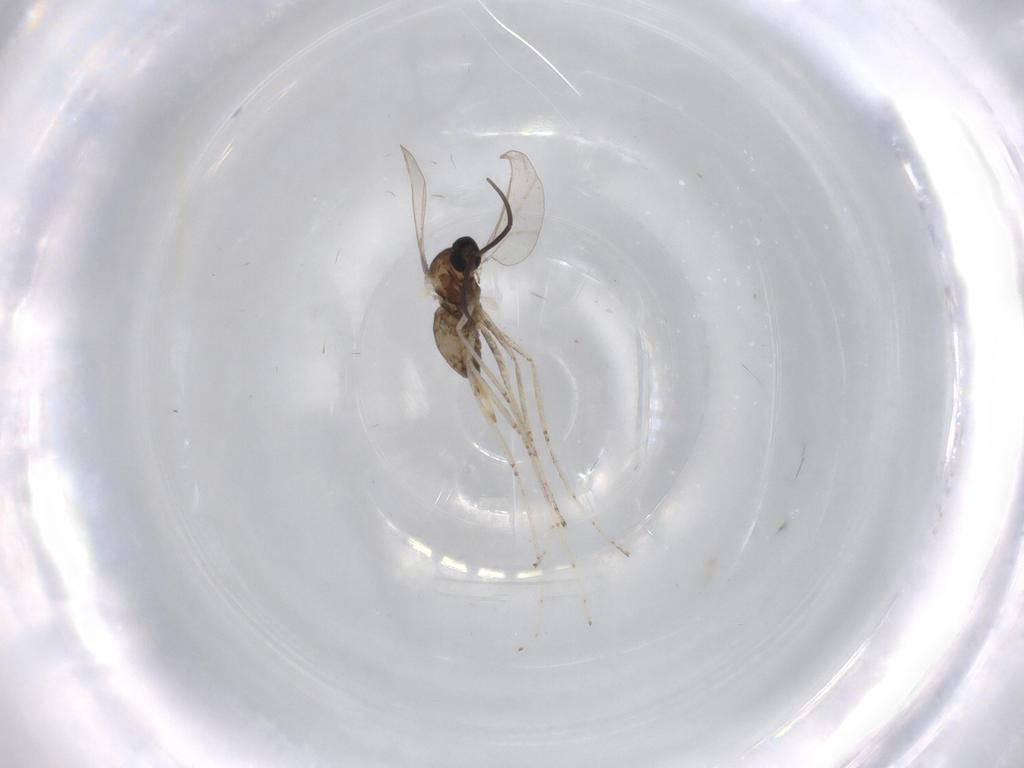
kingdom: Animalia
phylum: Arthropoda
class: Insecta
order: Diptera
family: Cecidomyiidae
